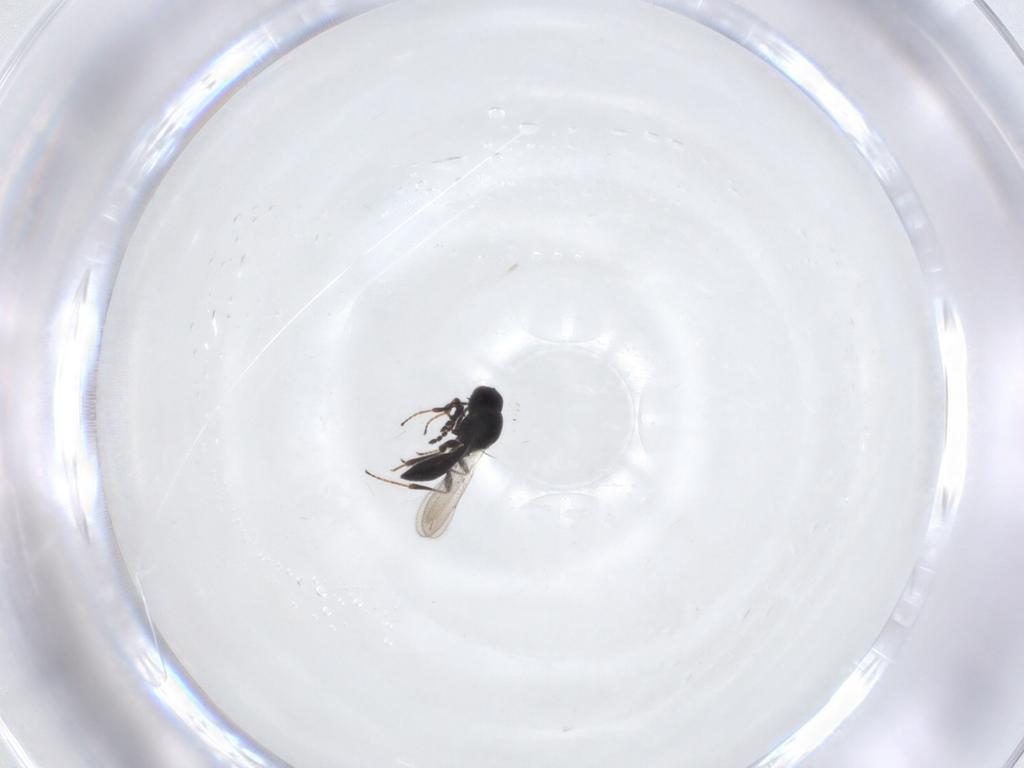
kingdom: Animalia
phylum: Arthropoda
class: Insecta
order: Hymenoptera
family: Platygastridae
